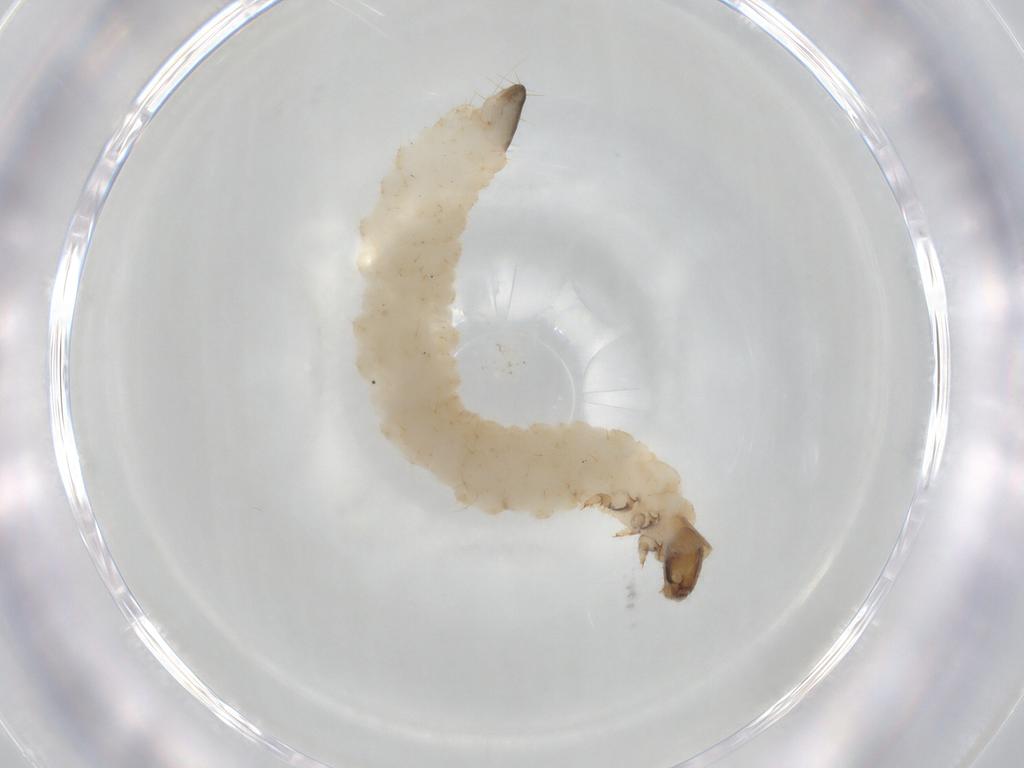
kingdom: Animalia
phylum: Arthropoda
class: Insecta
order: Coleoptera
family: Chrysomelidae
